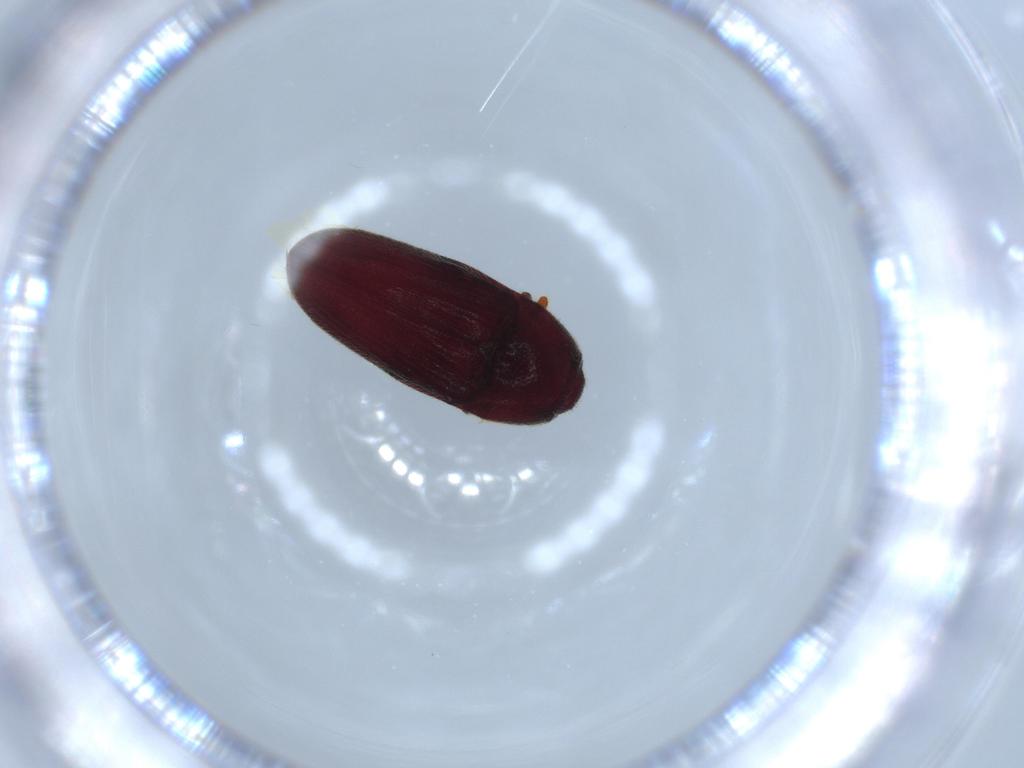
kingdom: Animalia
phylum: Arthropoda
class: Insecta
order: Coleoptera
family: Throscidae
